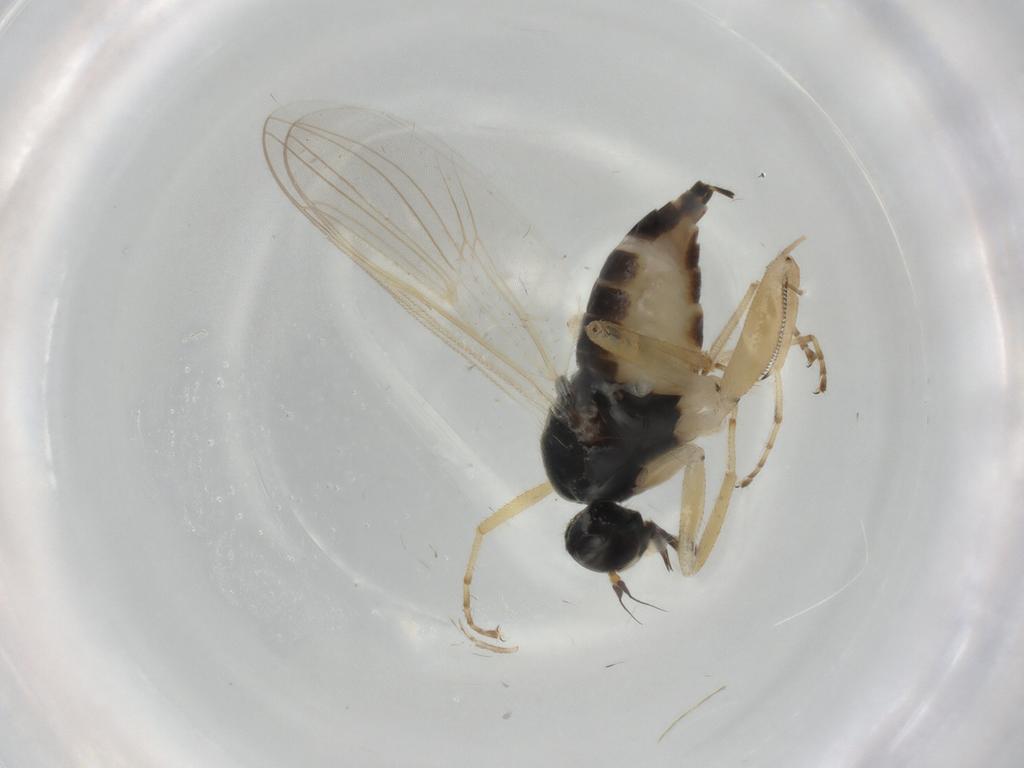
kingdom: Animalia
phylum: Arthropoda
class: Insecta
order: Diptera
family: Hybotidae
